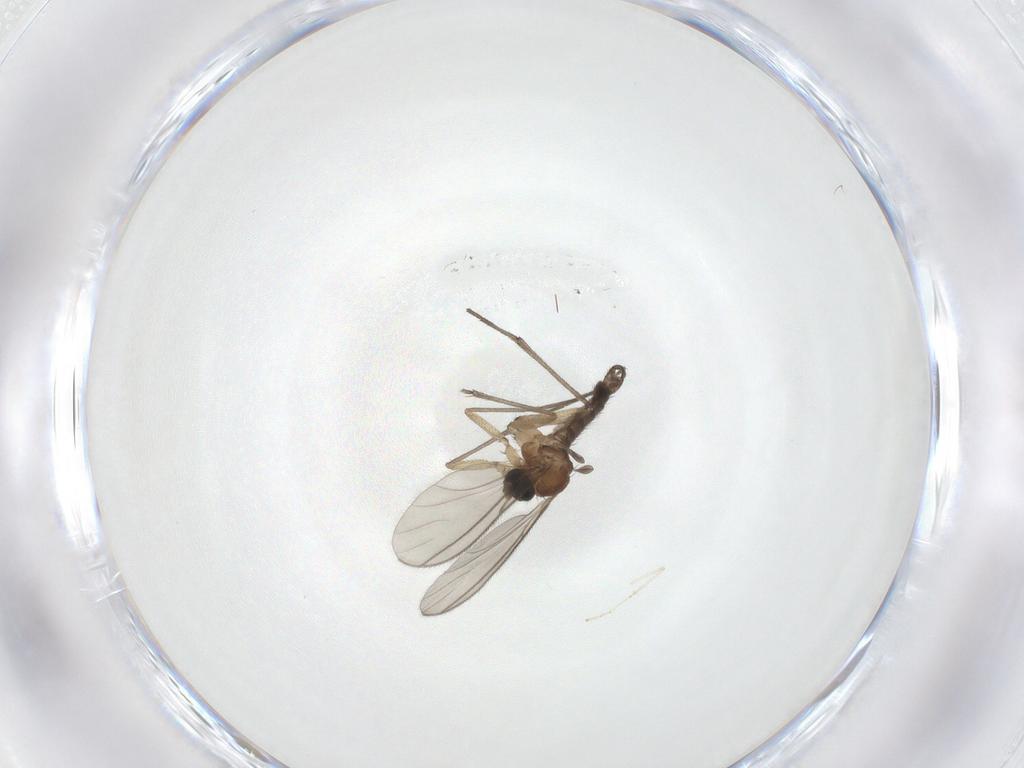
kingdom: Animalia
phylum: Arthropoda
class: Insecta
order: Diptera
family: Sciaridae
